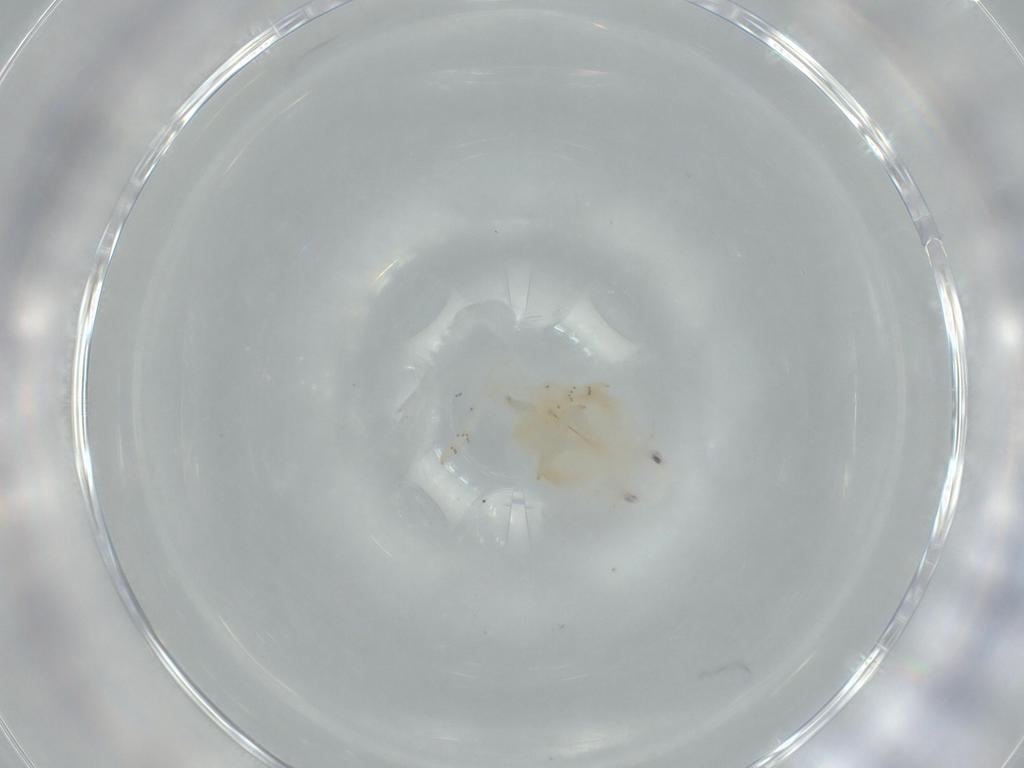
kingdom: Animalia
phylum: Arthropoda
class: Insecta
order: Hemiptera
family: Flatidae
